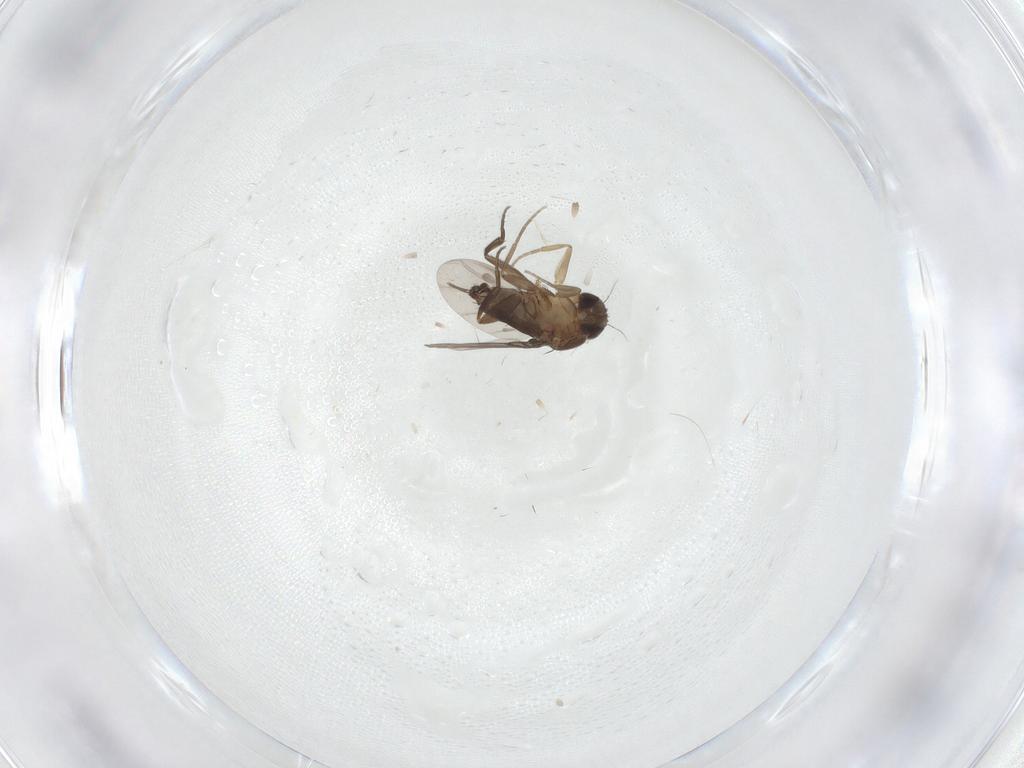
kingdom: Animalia
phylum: Arthropoda
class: Insecta
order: Diptera
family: Phoridae
